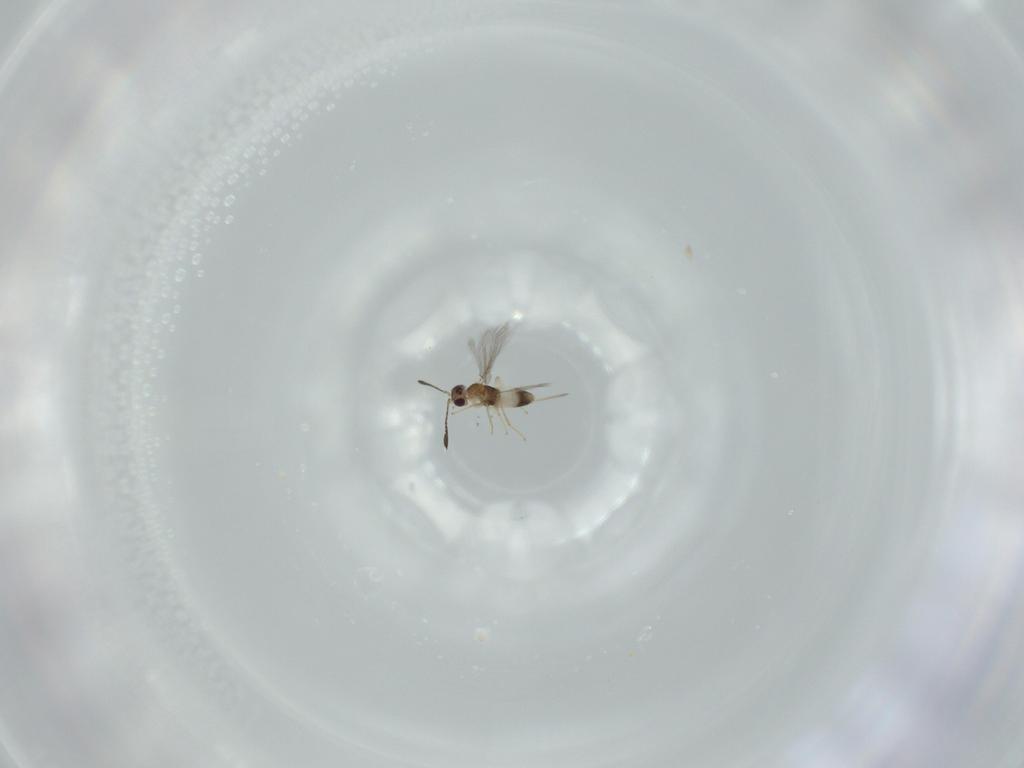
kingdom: Animalia
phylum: Arthropoda
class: Insecta
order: Hymenoptera
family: Mymaridae
